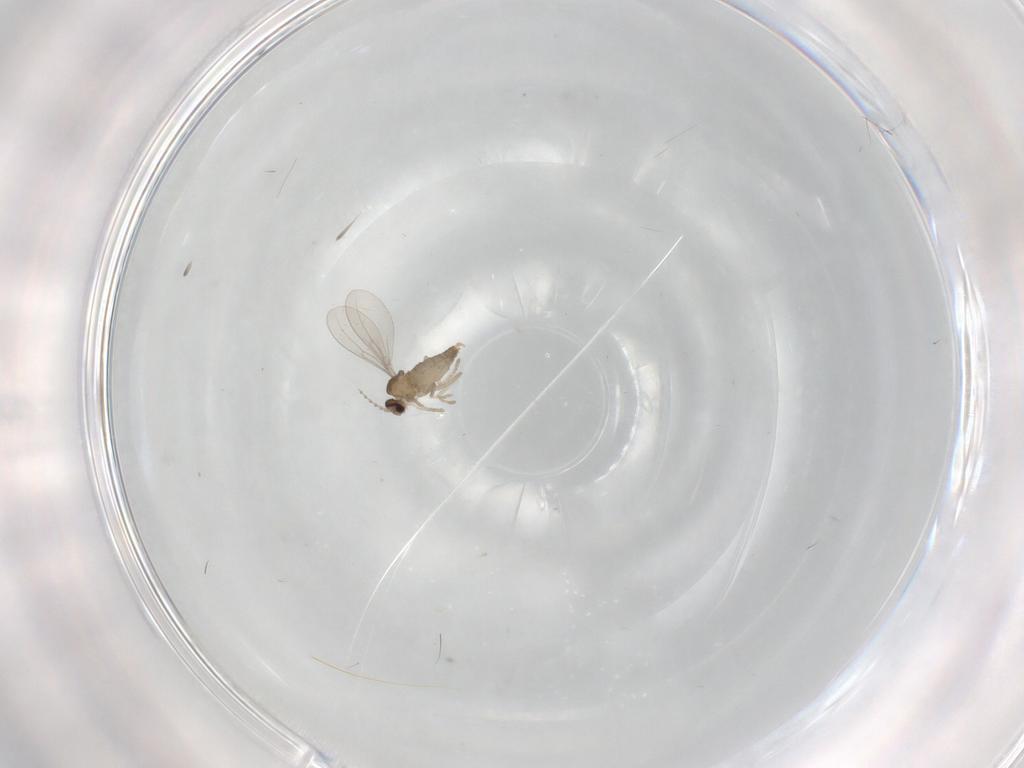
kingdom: Animalia
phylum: Arthropoda
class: Insecta
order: Diptera
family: Cecidomyiidae
